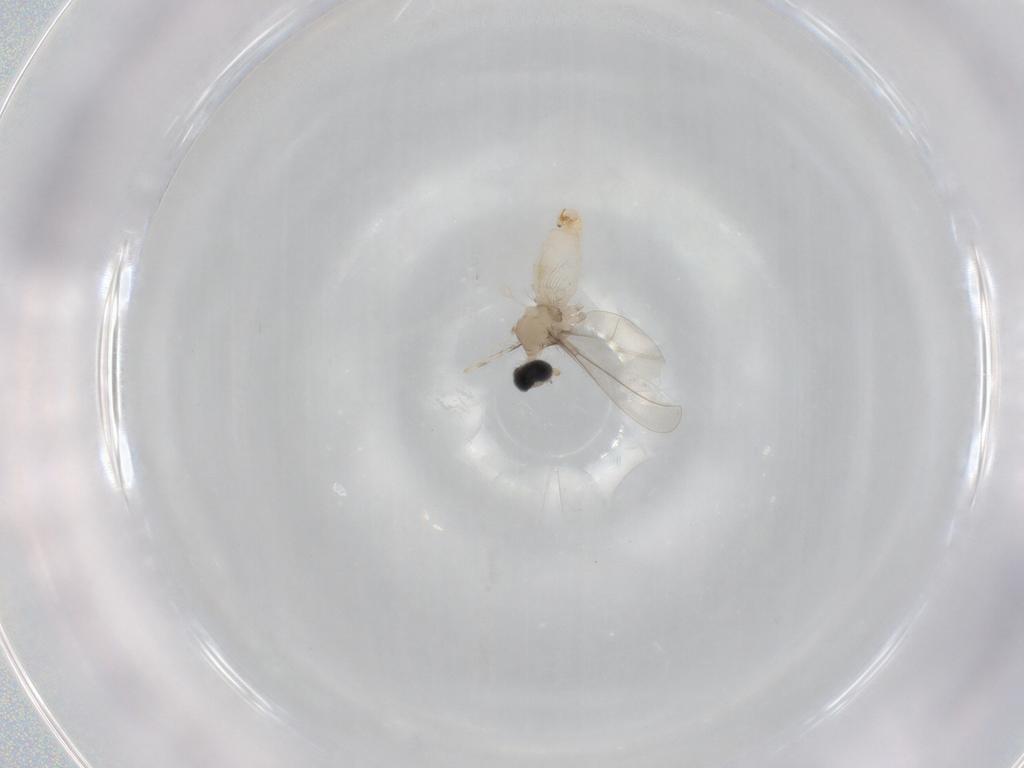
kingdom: Animalia
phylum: Arthropoda
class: Insecta
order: Diptera
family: Cecidomyiidae
